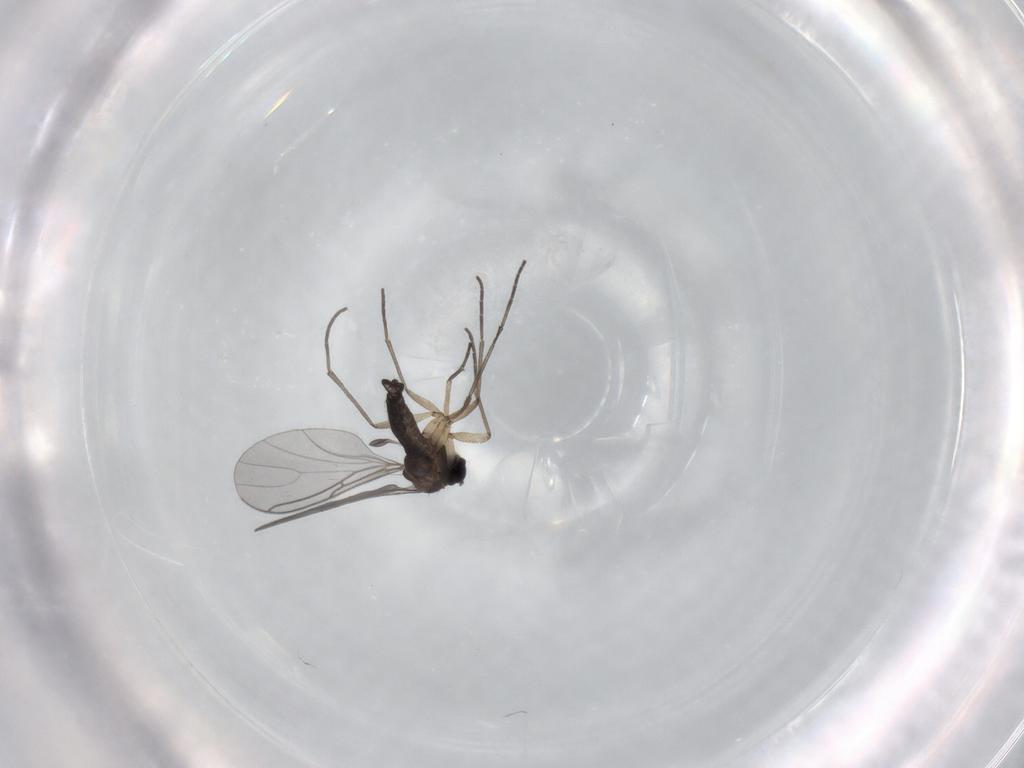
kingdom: Animalia
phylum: Arthropoda
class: Insecta
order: Diptera
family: Sciaridae
